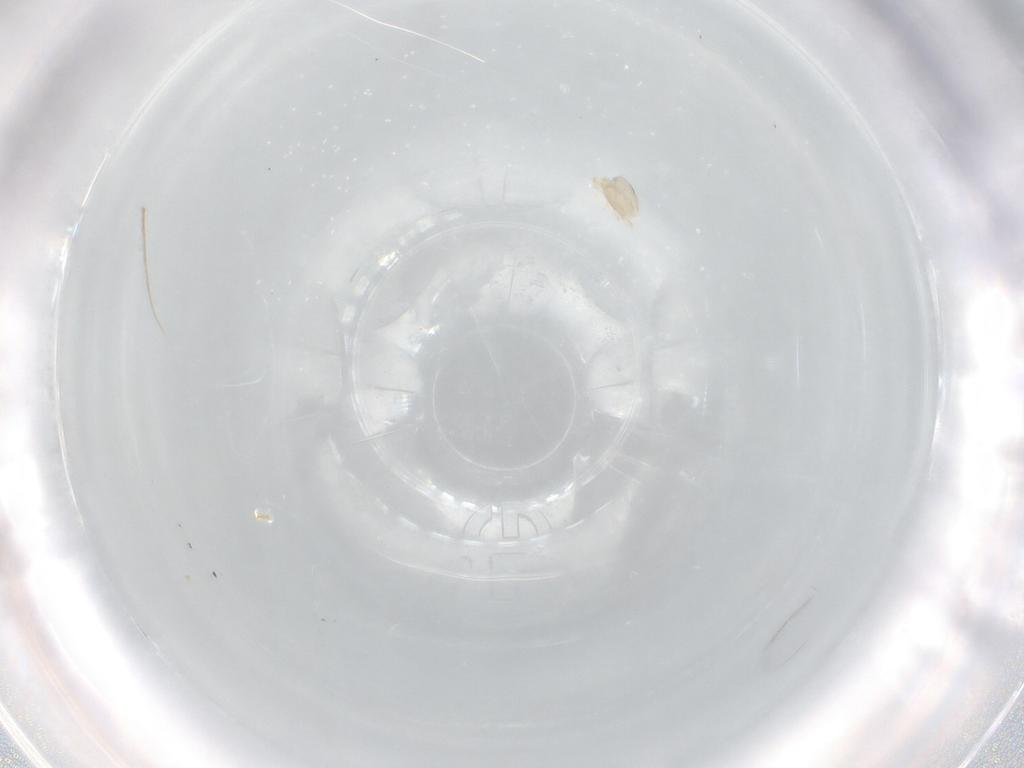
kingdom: Animalia
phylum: Arthropoda
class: Arachnida
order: Trombidiformes
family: Lebertiidae
